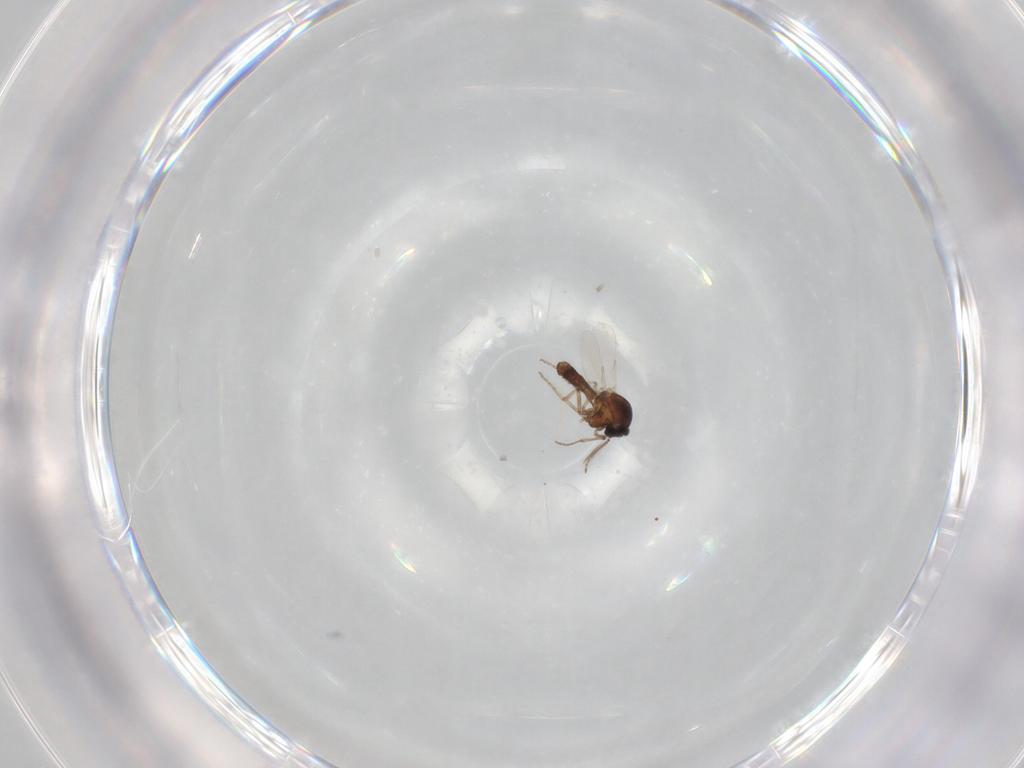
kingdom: Animalia
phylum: Arthropoda
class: Insecta
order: Diptera
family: Ceratopogonidae
